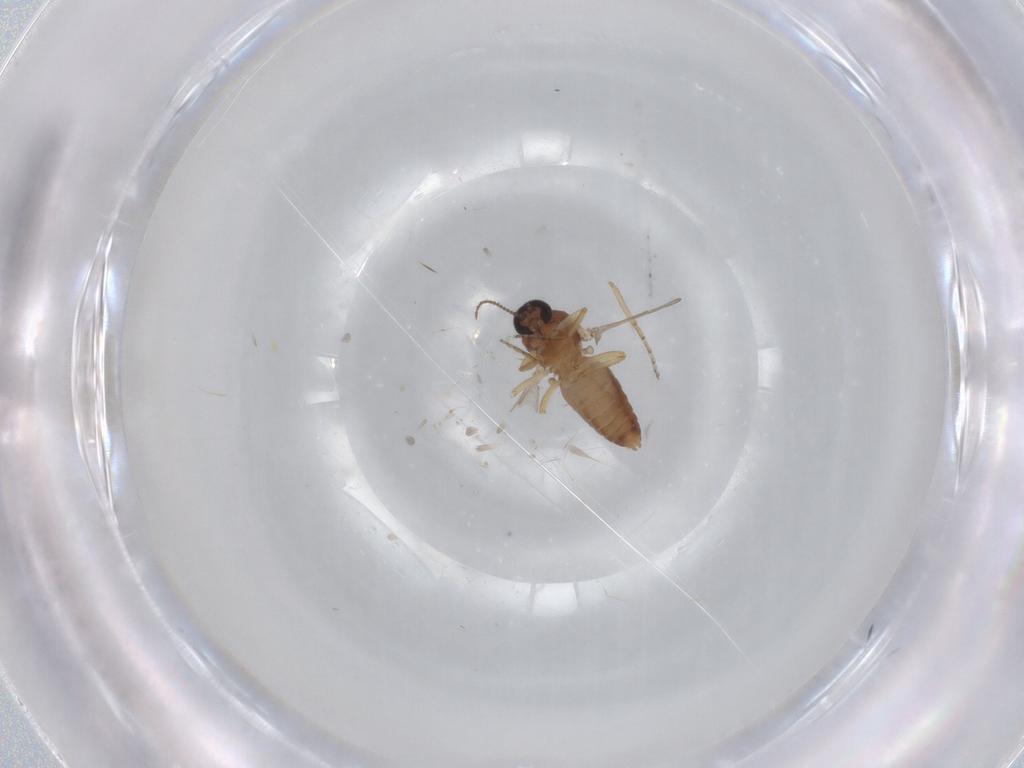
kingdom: Animalia
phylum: Arthropoda
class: Insecta
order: Diptera
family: Ceratopogonidae
